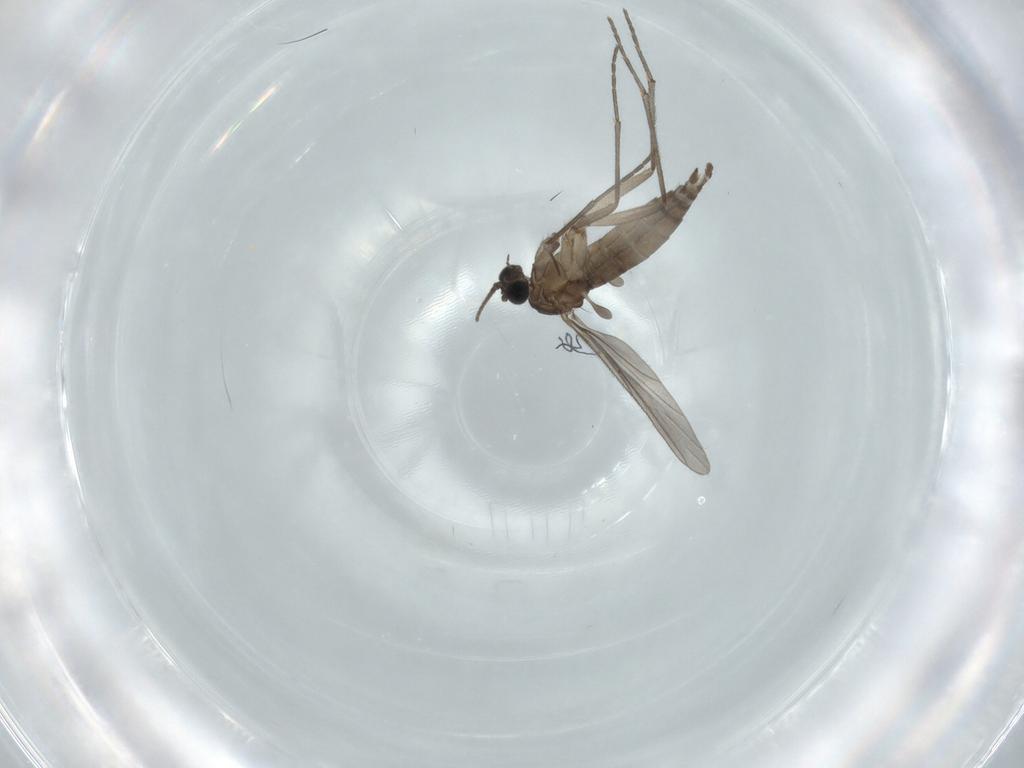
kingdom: Animalia
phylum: Arthropoda
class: Insecta
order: Diptera
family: Sciaridae
